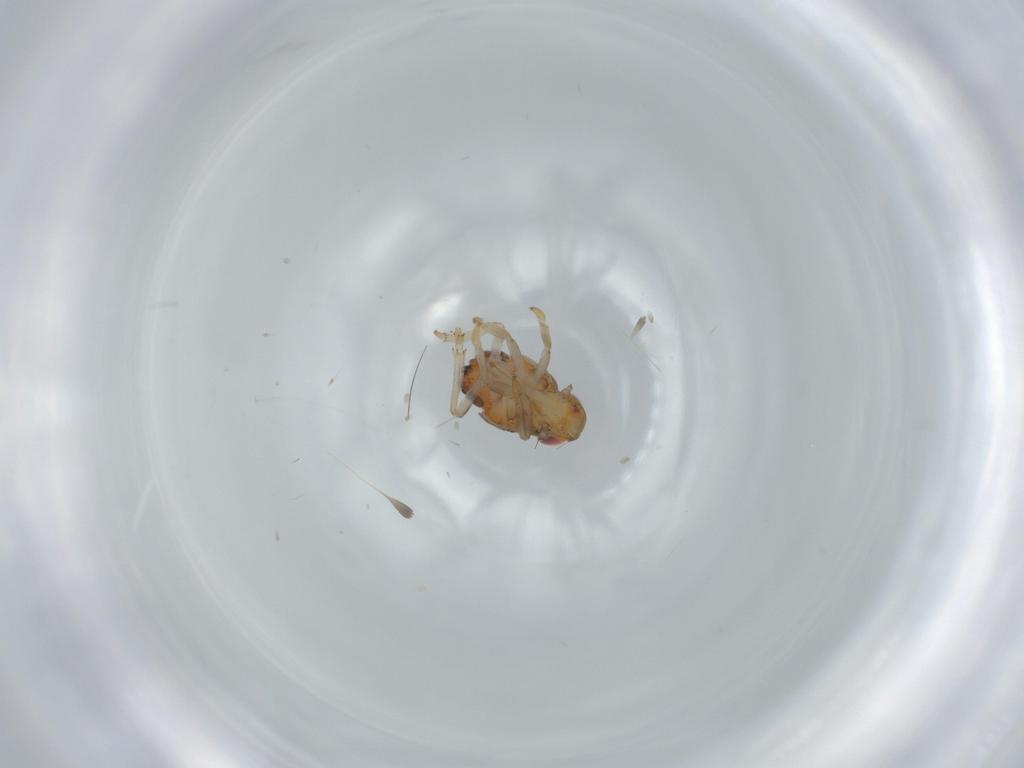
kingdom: Animalia
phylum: Arthropoda
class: Insecta
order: Hemiptera
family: Issidae
